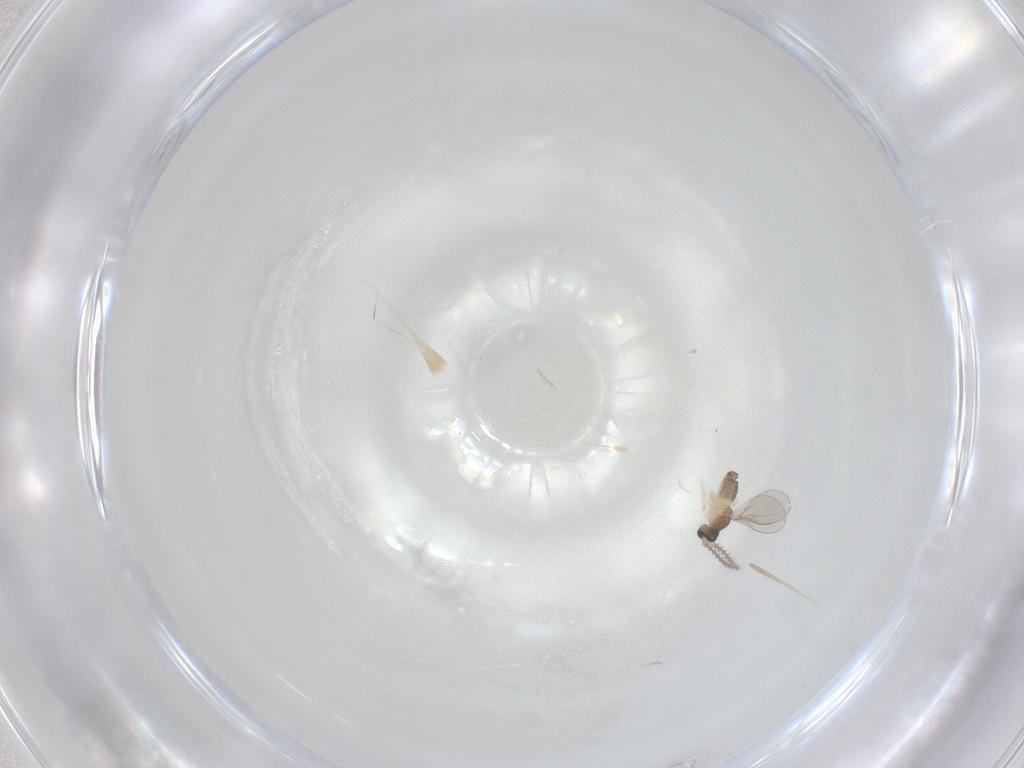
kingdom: Animalia
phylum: Arthropoda
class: Insecta
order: Diptera
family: Cecidomyiidae
